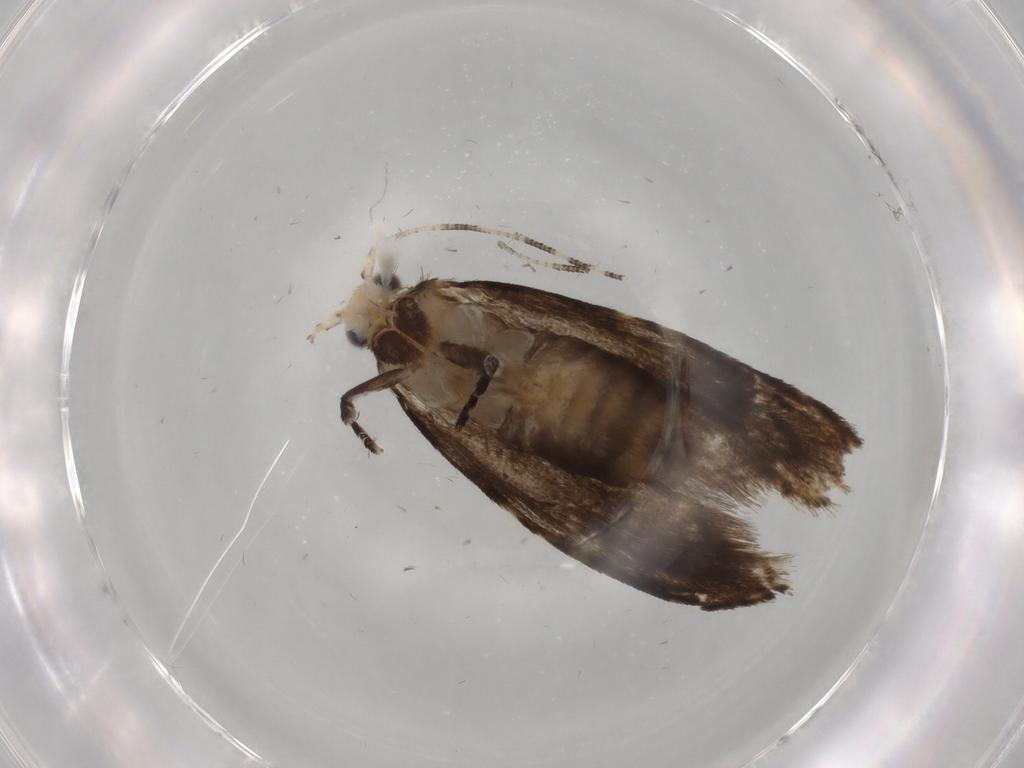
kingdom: Animalia
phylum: Arthropoda
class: Insecta
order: Lepidoptera
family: Tineidae
